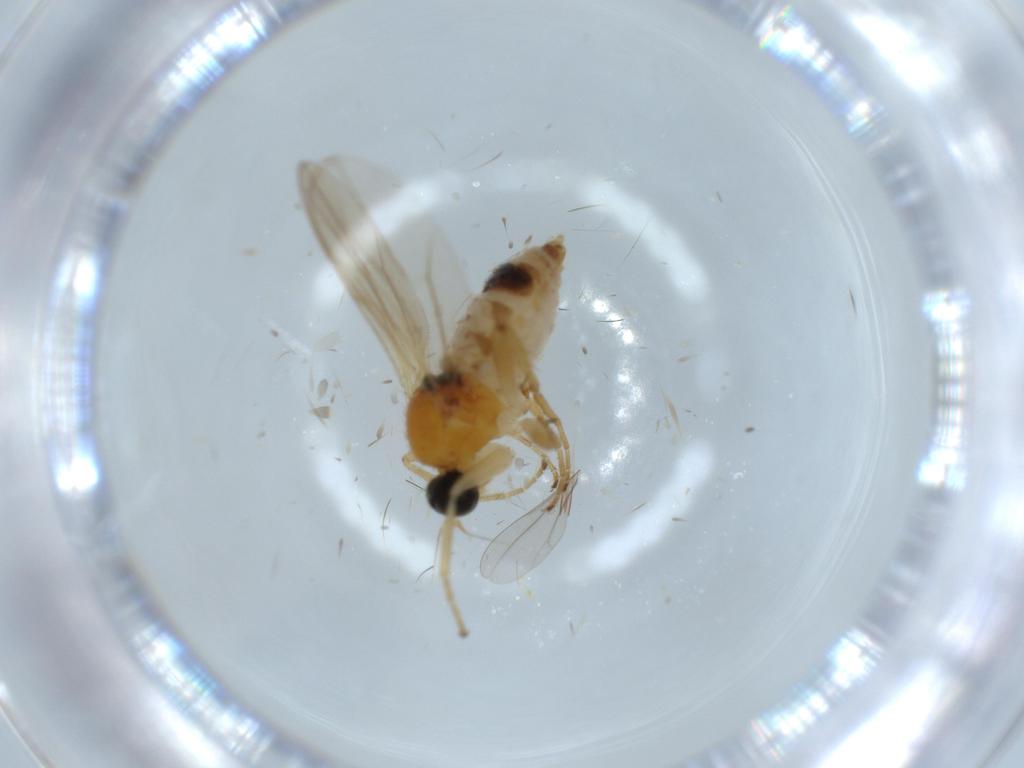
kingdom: Animalia
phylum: Arthropoda
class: Insecta
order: Diptera
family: Hybotidae
